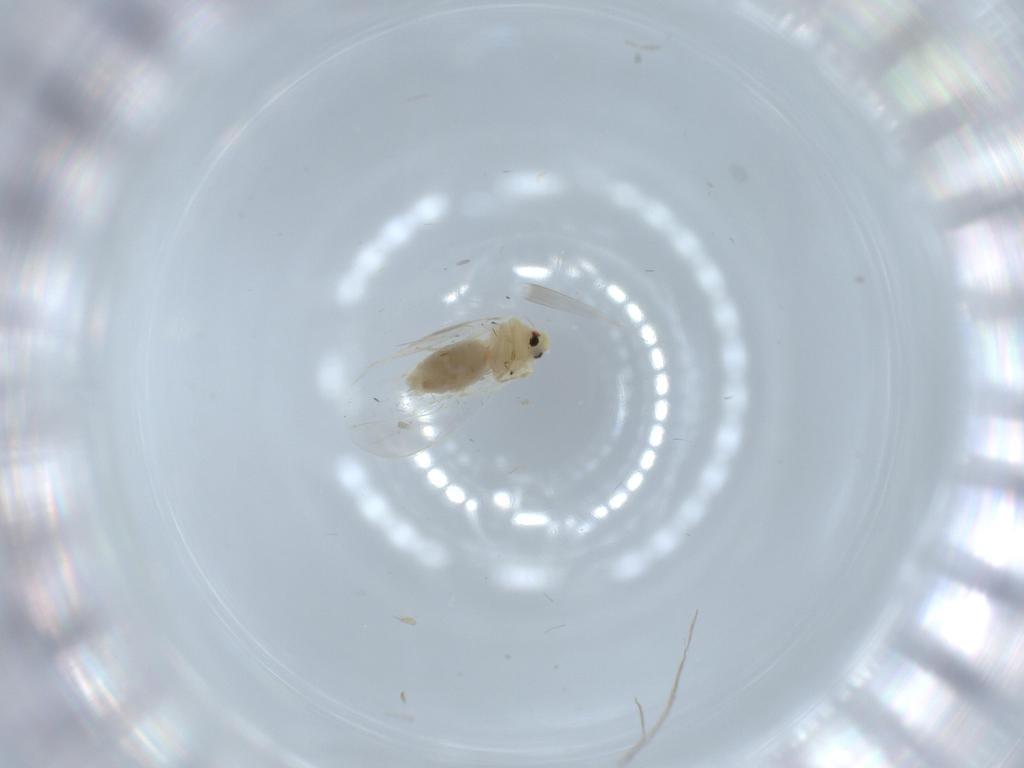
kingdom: Animalia
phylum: Arthropoda
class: Insecta
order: Hemiptera
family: Aleyrodidae
